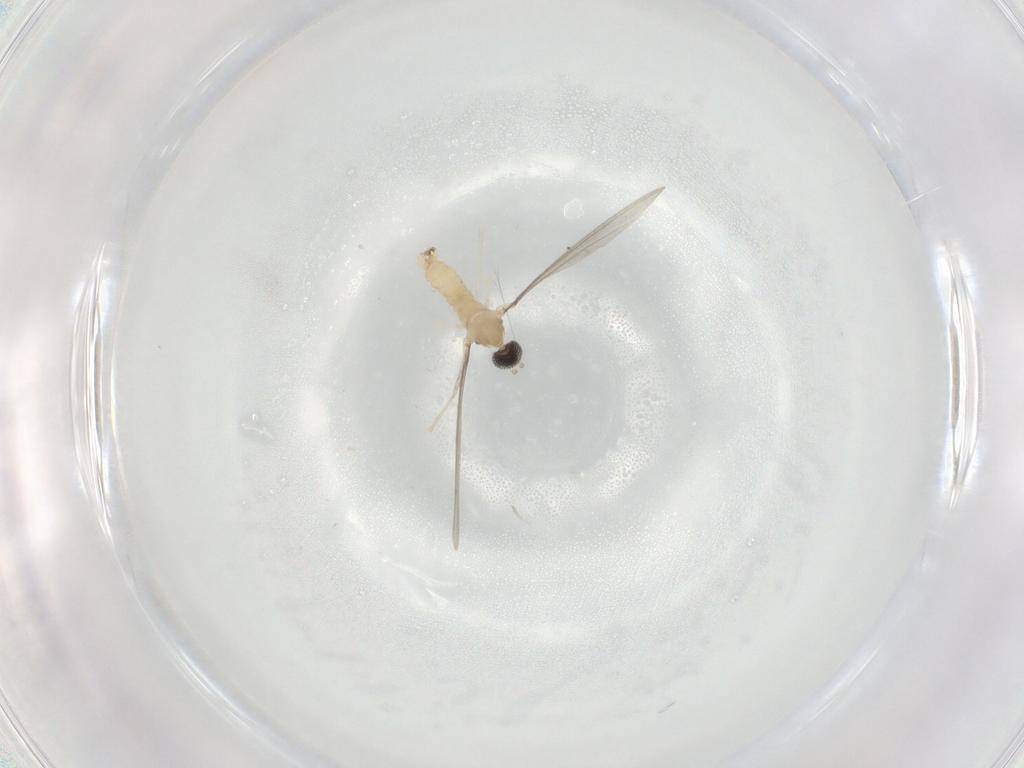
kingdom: Animalia
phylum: Arthropoda
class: Insecta
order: Diptera
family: Cecidomyiidae
